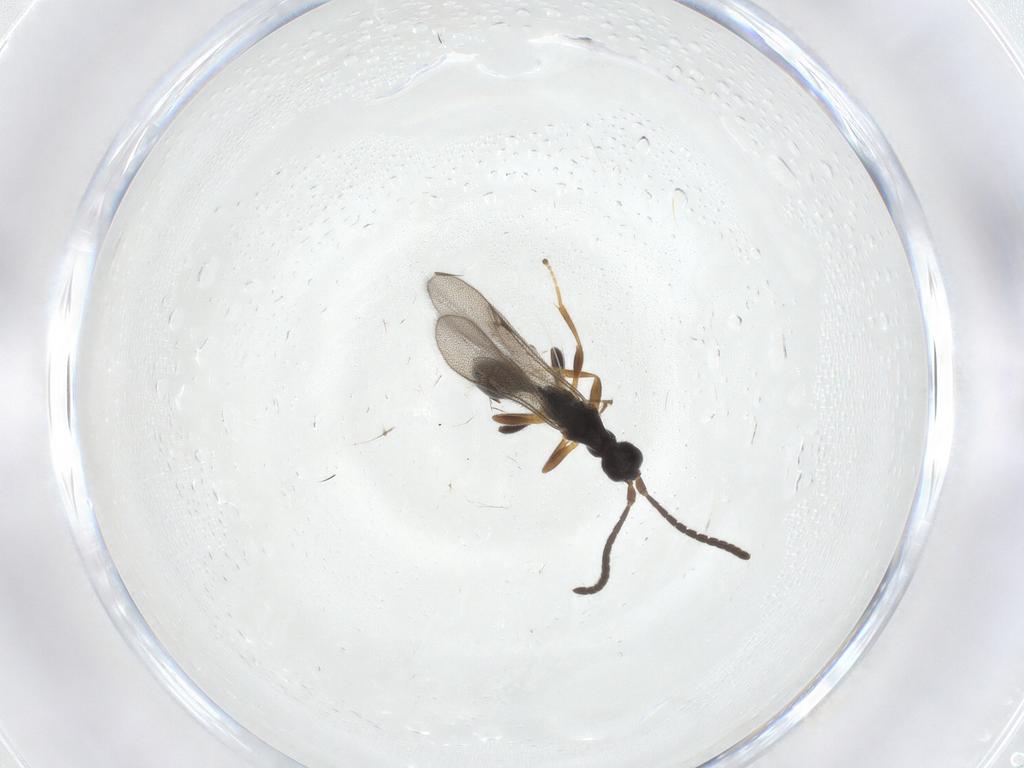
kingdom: Animalia
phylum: Arthropoda
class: Insecta
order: Hymenoptera
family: Proctotrupidae
